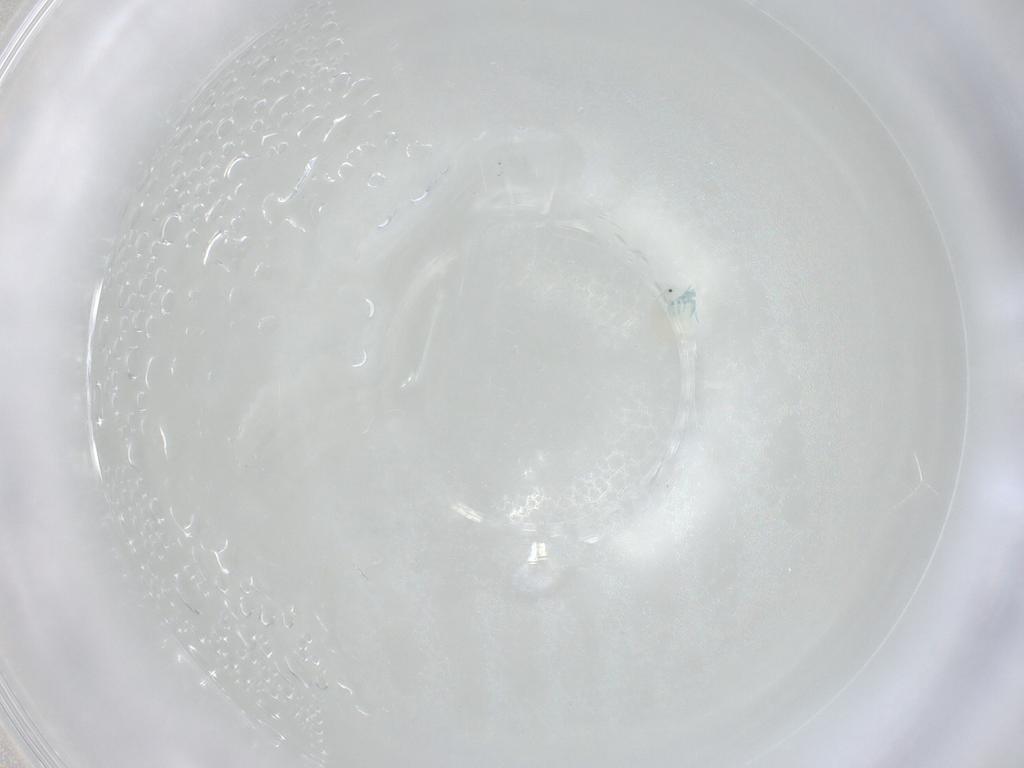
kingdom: Animalia
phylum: Arthropoda
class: Arachnida
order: Trombidiformes
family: Arrenuridae
